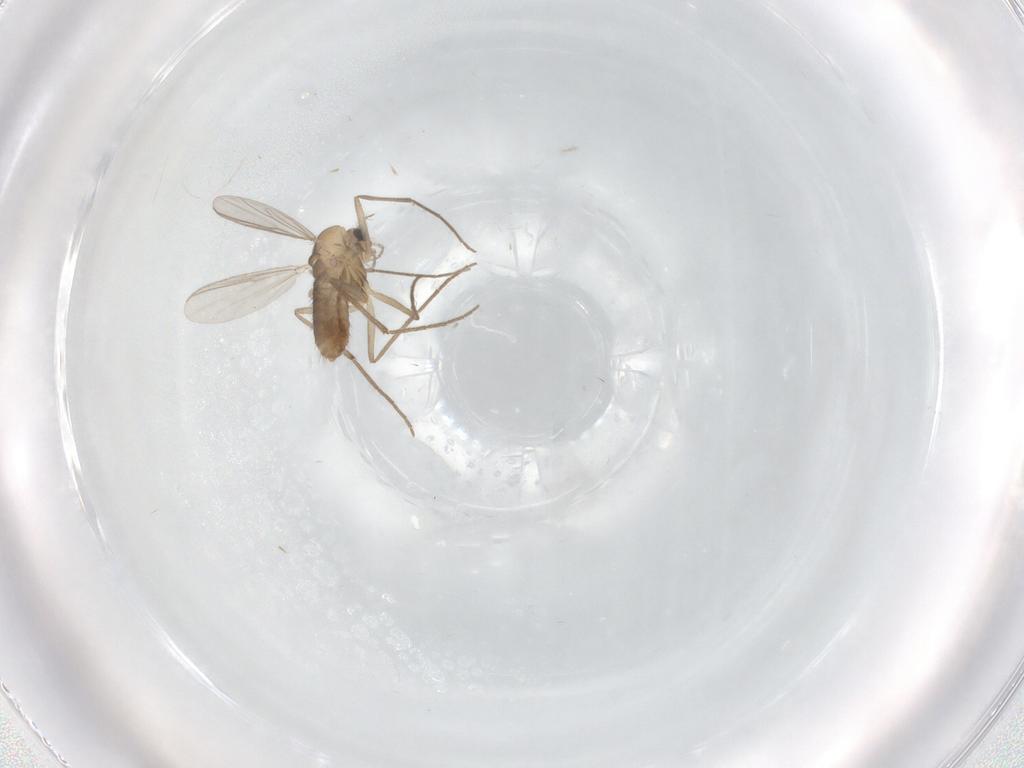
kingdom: Animalia
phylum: Arthropoda
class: Insecta
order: Diptera
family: Chironomidae
